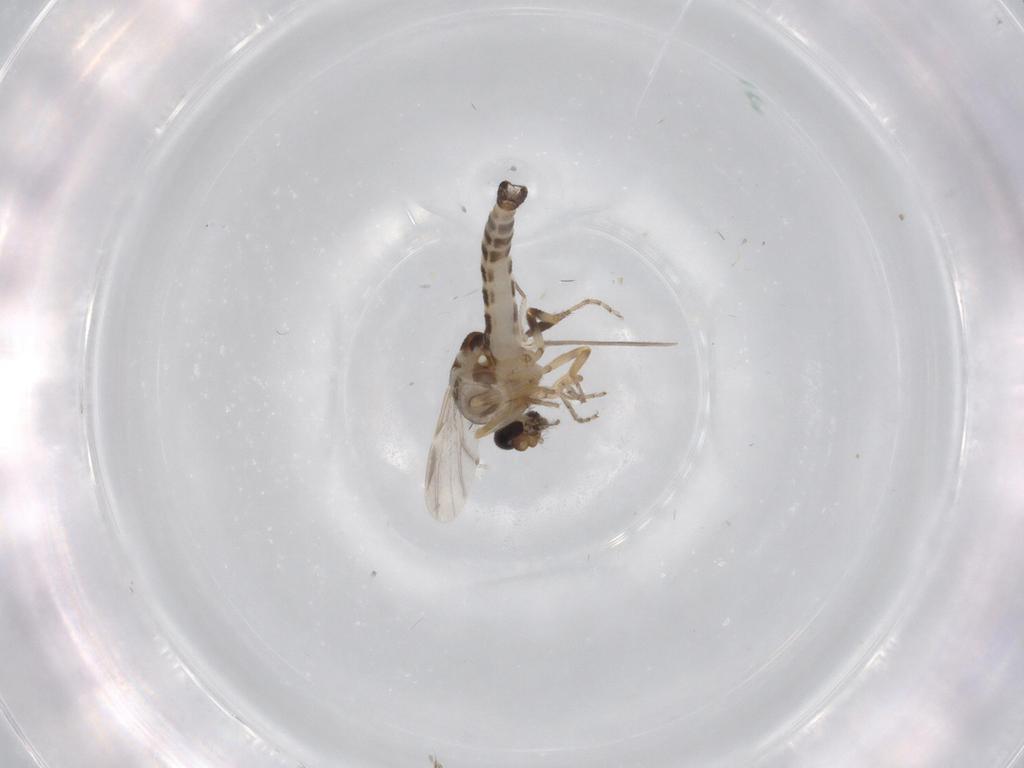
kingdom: Animalia
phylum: Arthropoda
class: Insecta
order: Diptera
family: Ceratopogonidae
